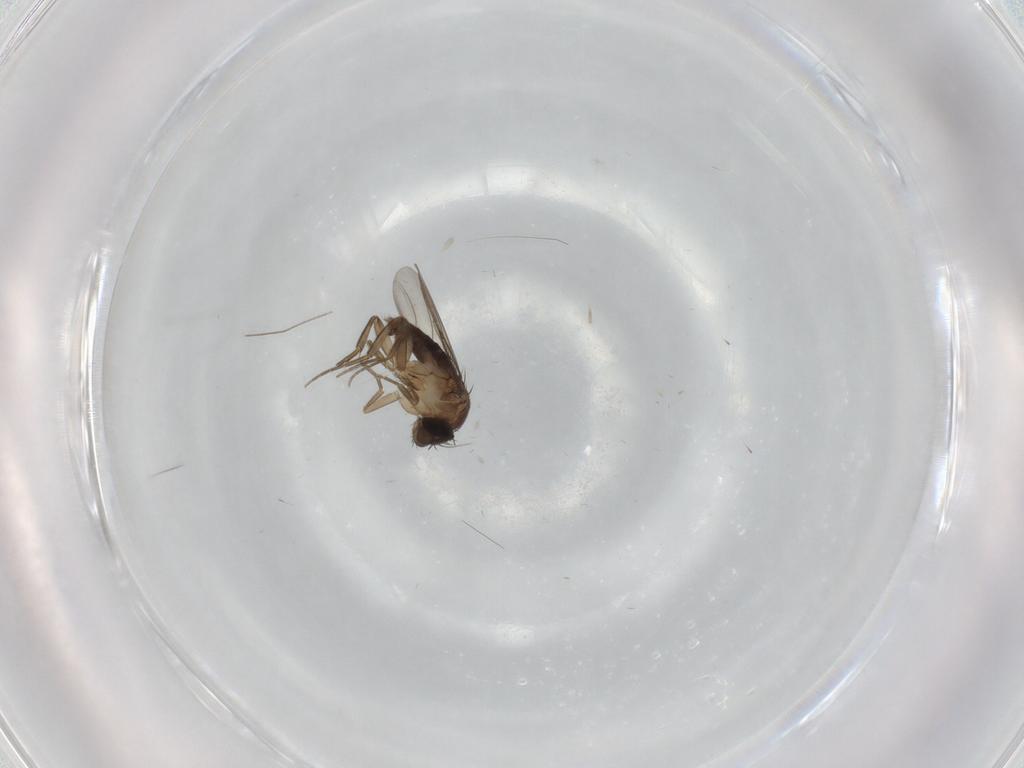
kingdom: Animalia
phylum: Arthropoda
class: Insecta
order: Diptera
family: Phoridae
